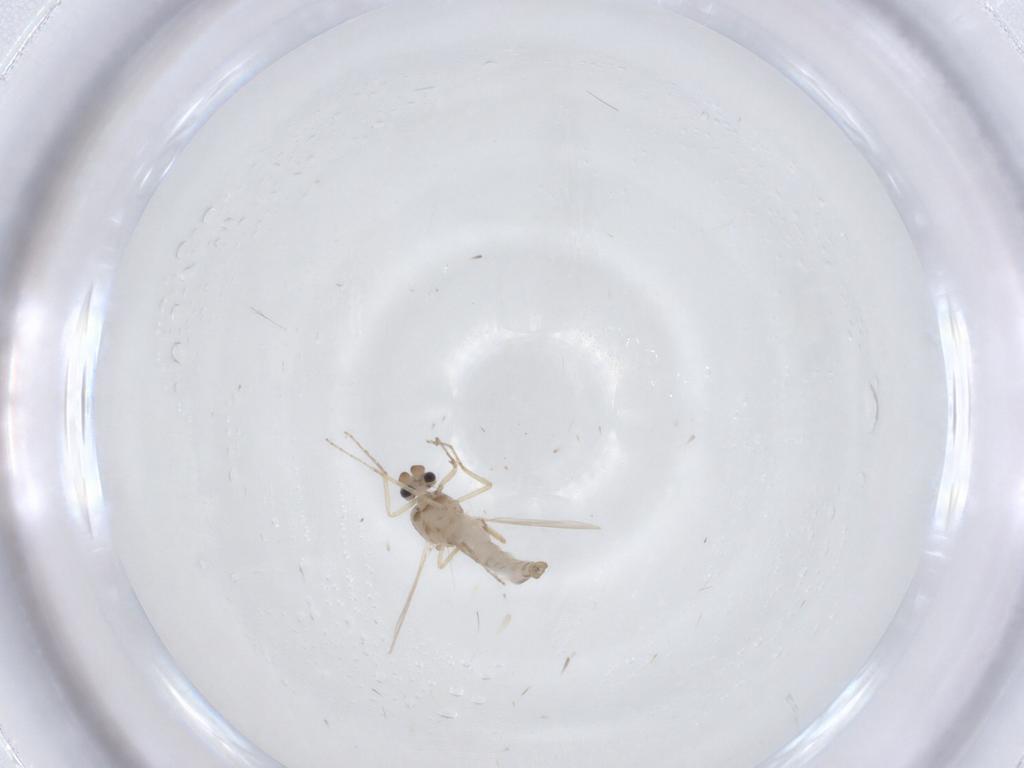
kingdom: Animalia
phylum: Arthropoda
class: Insecta
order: Diptera
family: Ceratopogonidae
